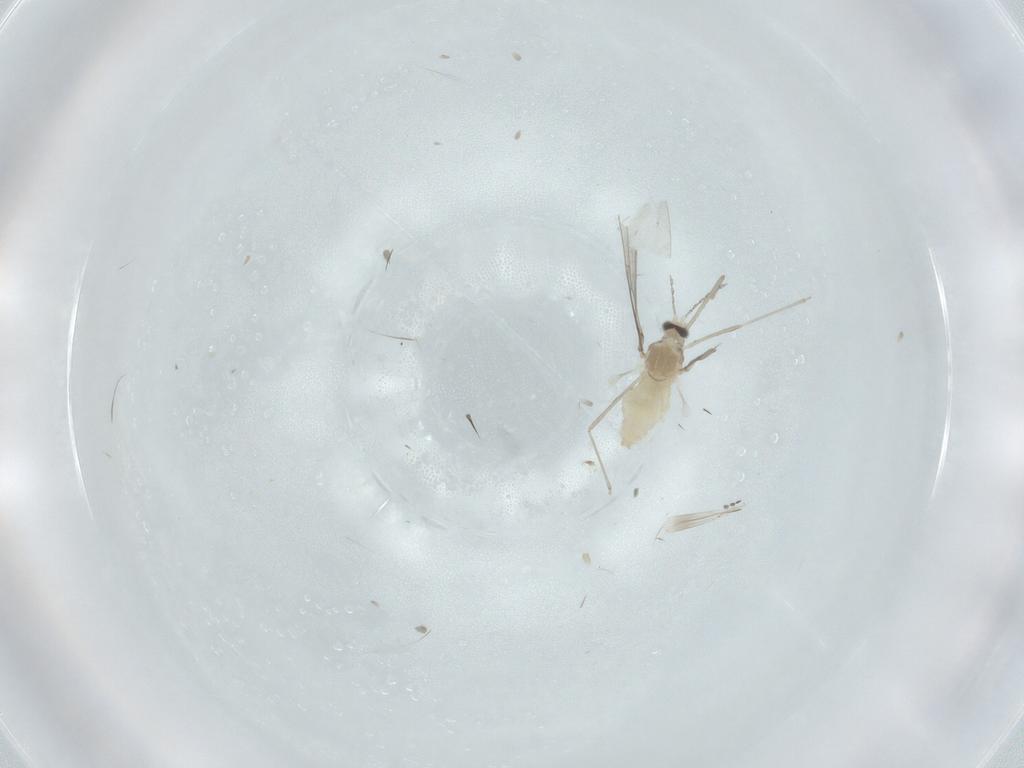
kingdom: Animalia
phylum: Arthropoda
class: Insecta
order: Diptera
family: Cecidomyiidae
